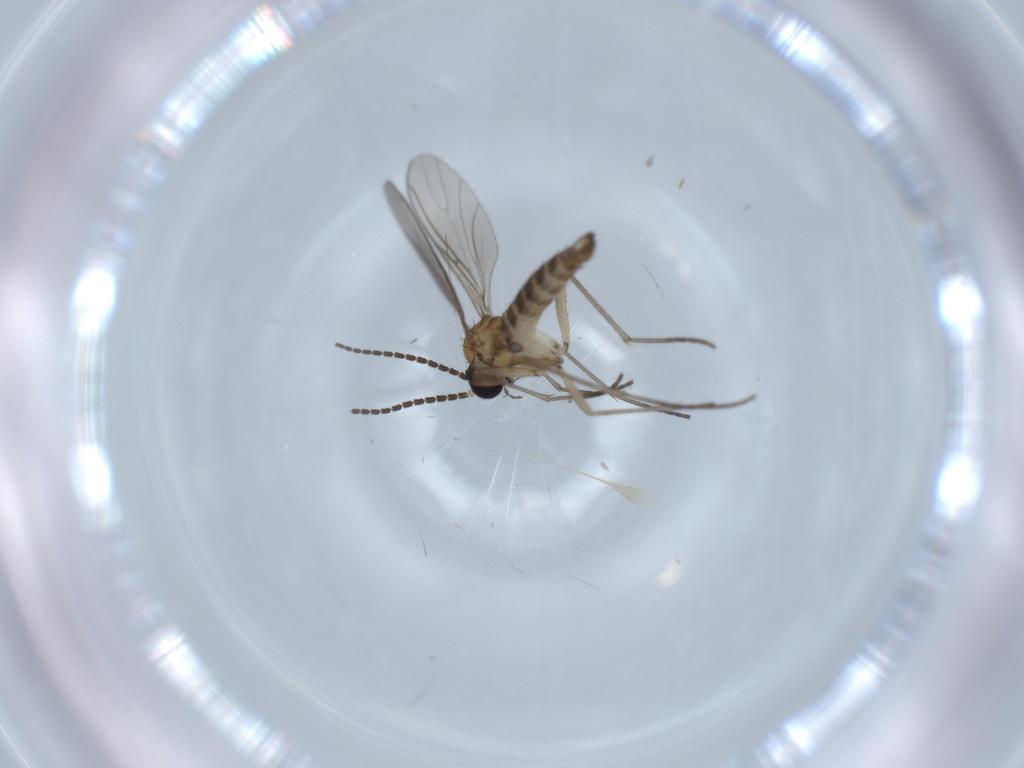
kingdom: Animalia
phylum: Arthropoda
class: Insecta
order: Diptera
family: Sciaridae
